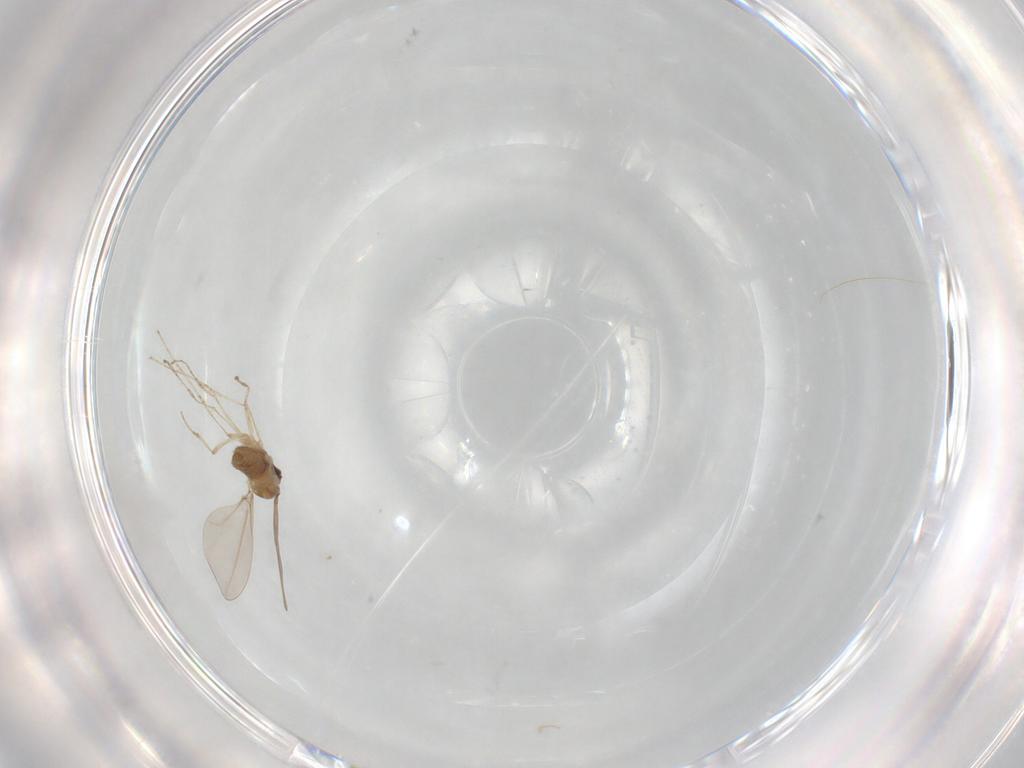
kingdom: Animalia
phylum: Arthropoda
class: Insecta
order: Diptera
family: Cecidomyiidae
